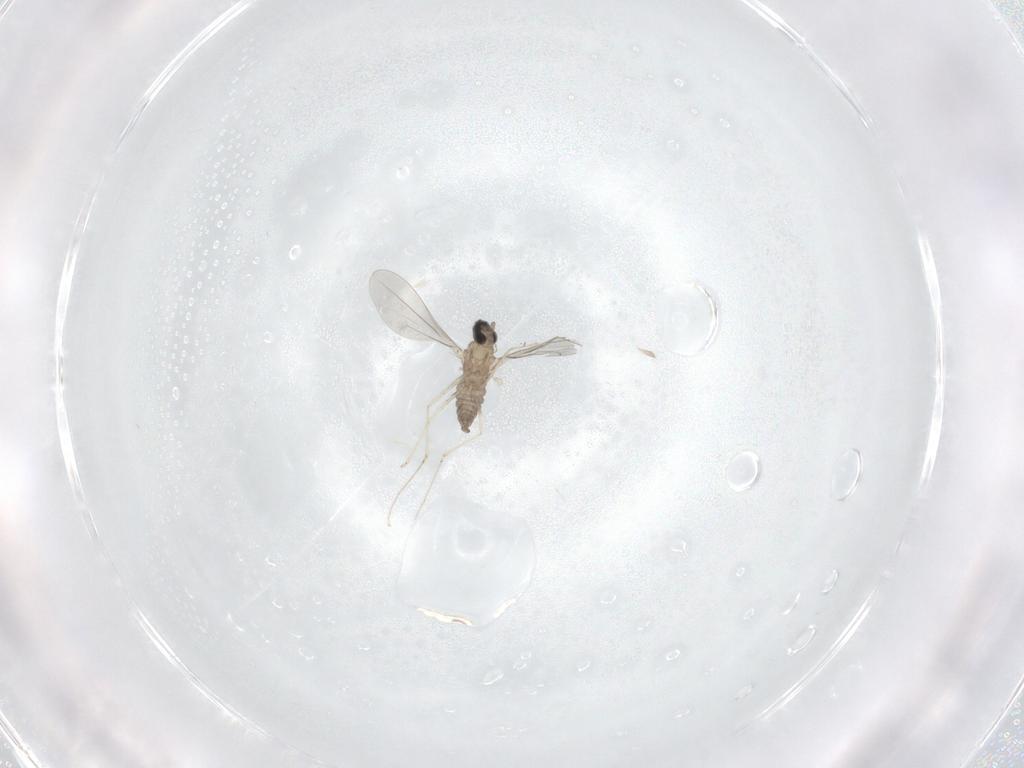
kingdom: Animalia
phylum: Arthropoda
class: Insecta
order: Diptera
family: Cecidomyiidae
